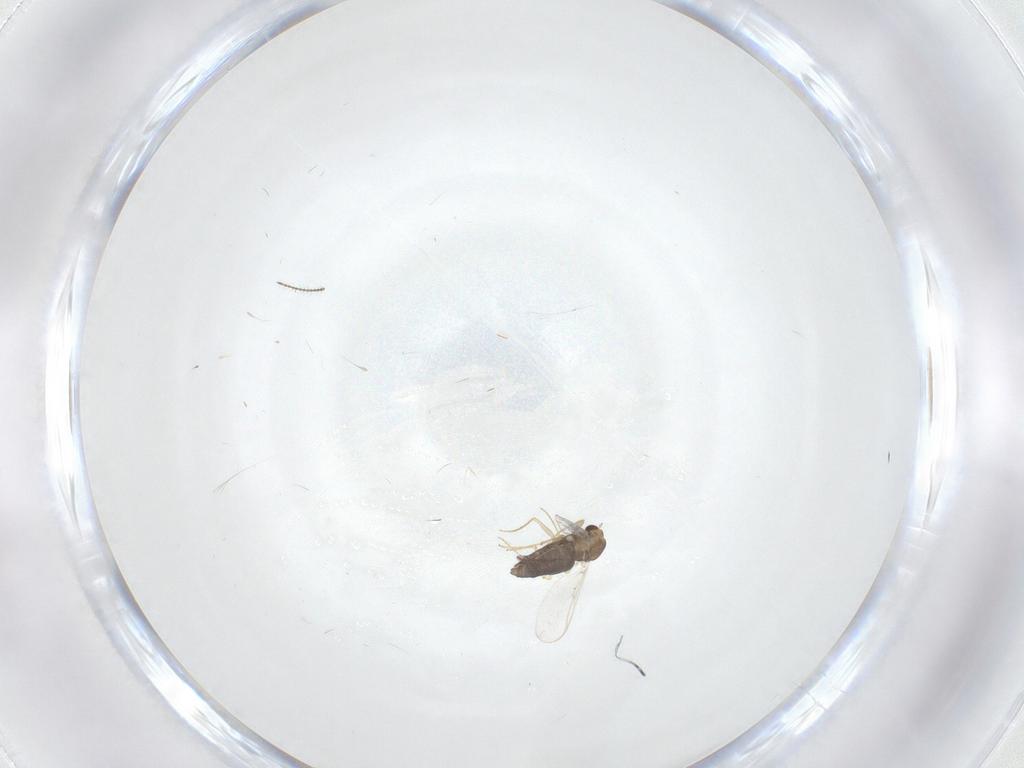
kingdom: Animalia
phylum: Arthropoda
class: Insecta
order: Diptera
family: Chironomidae
